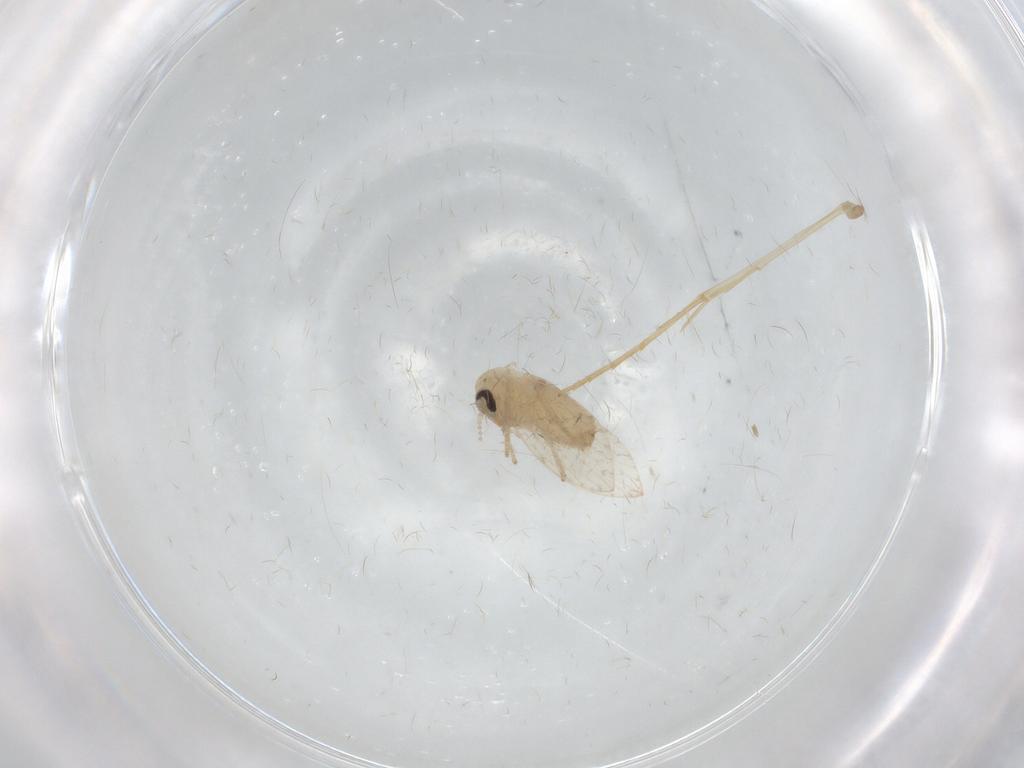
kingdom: Animalia
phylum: Arthropoda
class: Insecta
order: Diptera
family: Psychodidae
